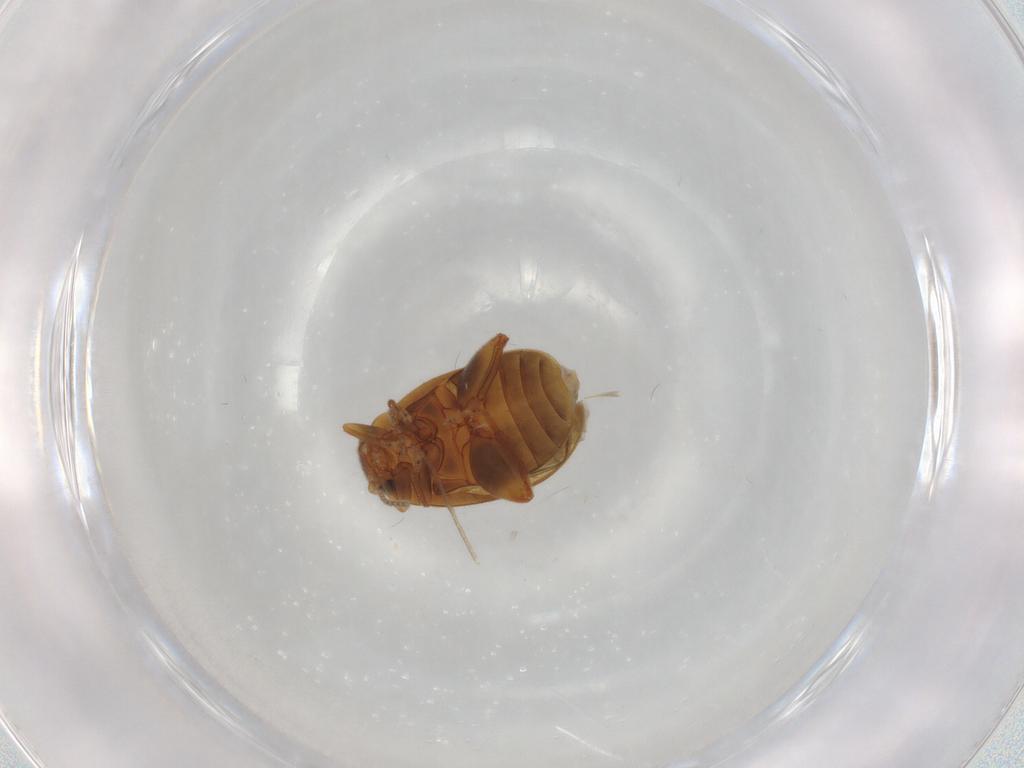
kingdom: Animalia
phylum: Arthropoda
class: Insecta
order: Coleoptera
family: Scirtidae
